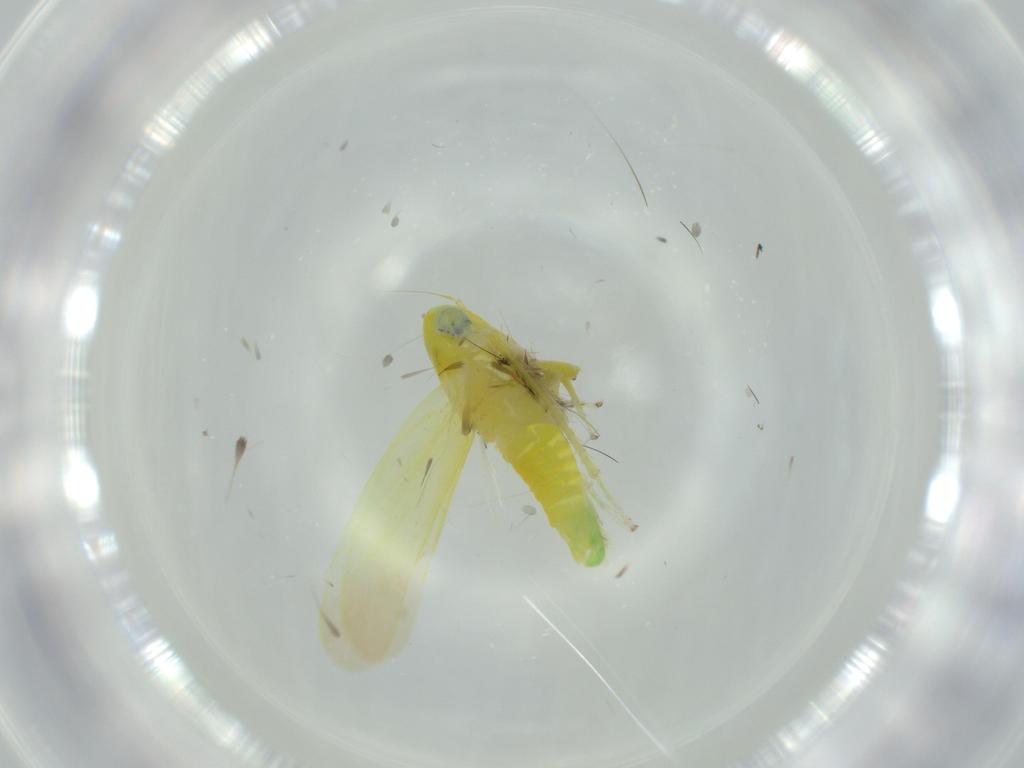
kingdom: Animalia
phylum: Arthropoda
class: Insecta
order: Hemiptera
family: Cicadellidae
